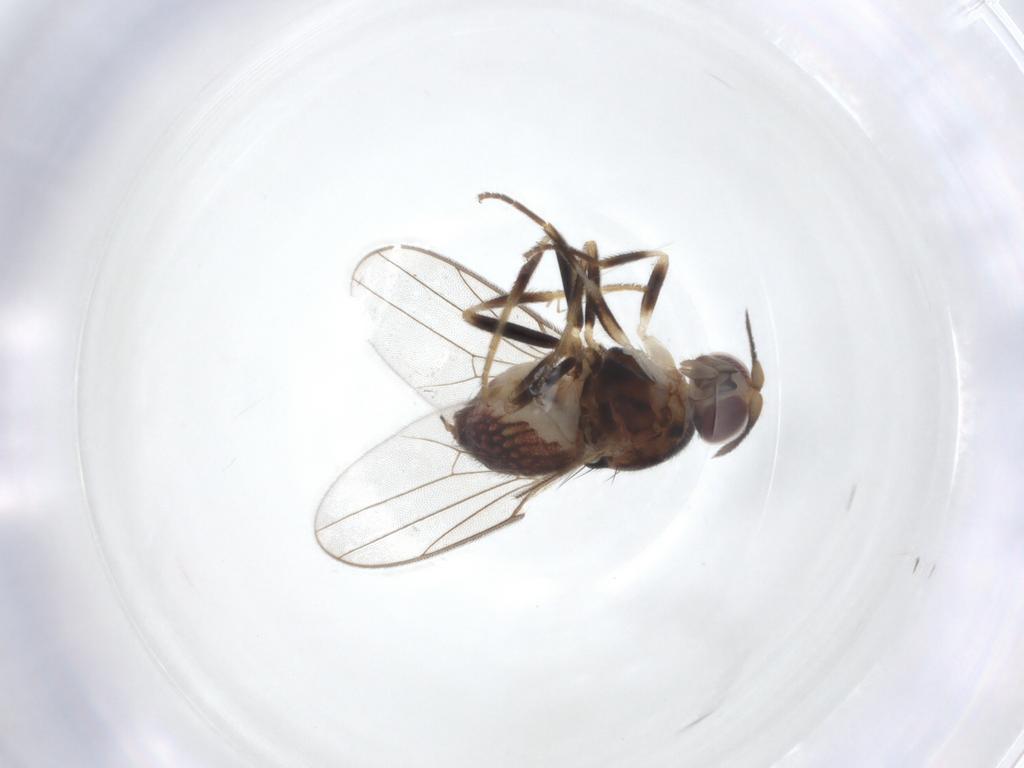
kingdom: Animalia
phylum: Arthropoda
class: Insecta
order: Diptera
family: Chloropidae
